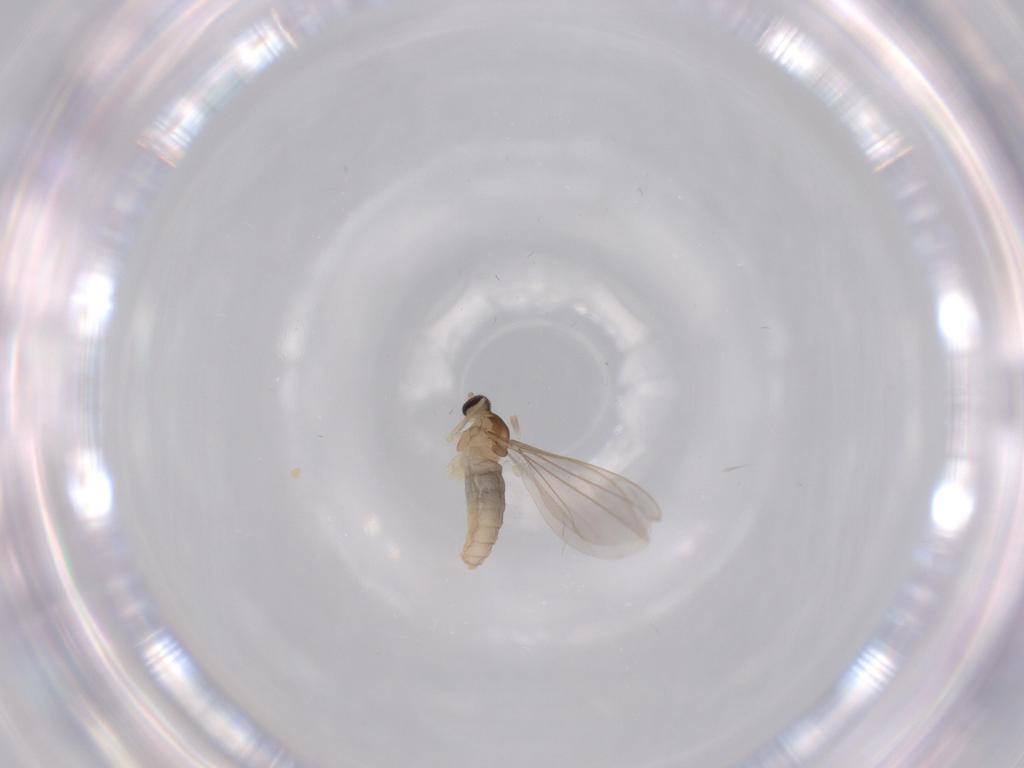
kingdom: Animalia
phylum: Arthropoda
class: Insecta
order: Diptera
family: Cecidomyiidae
